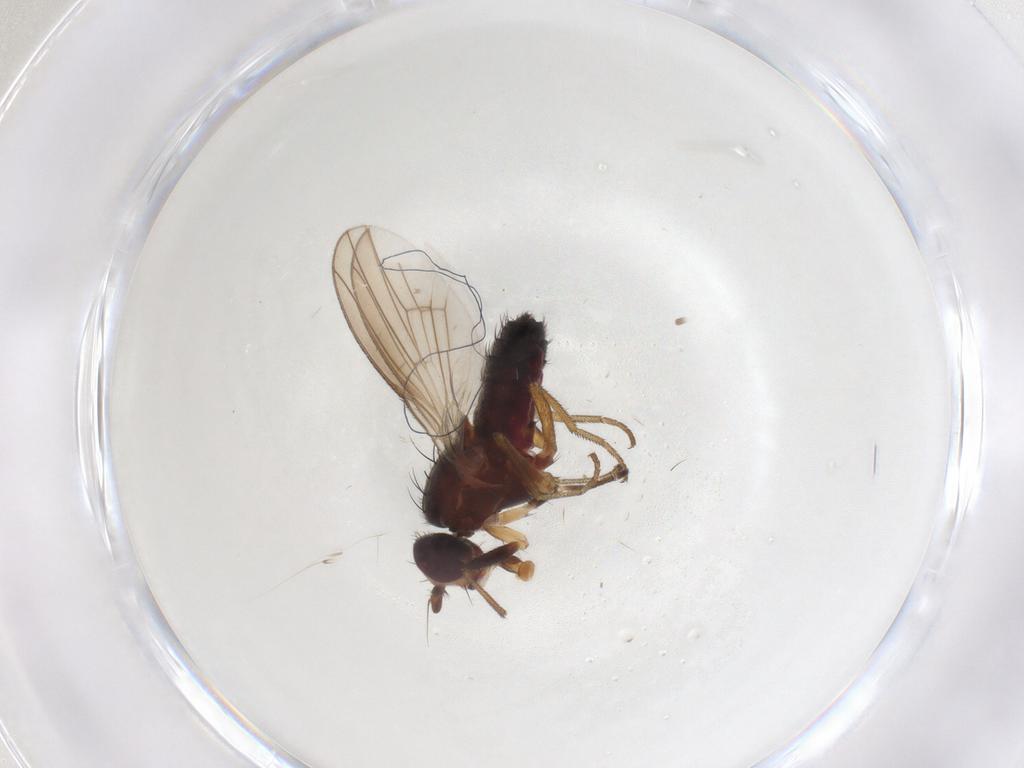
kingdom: Animalia
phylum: Arthropoda
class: Insecta
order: Diptera
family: Heleomyzidae
